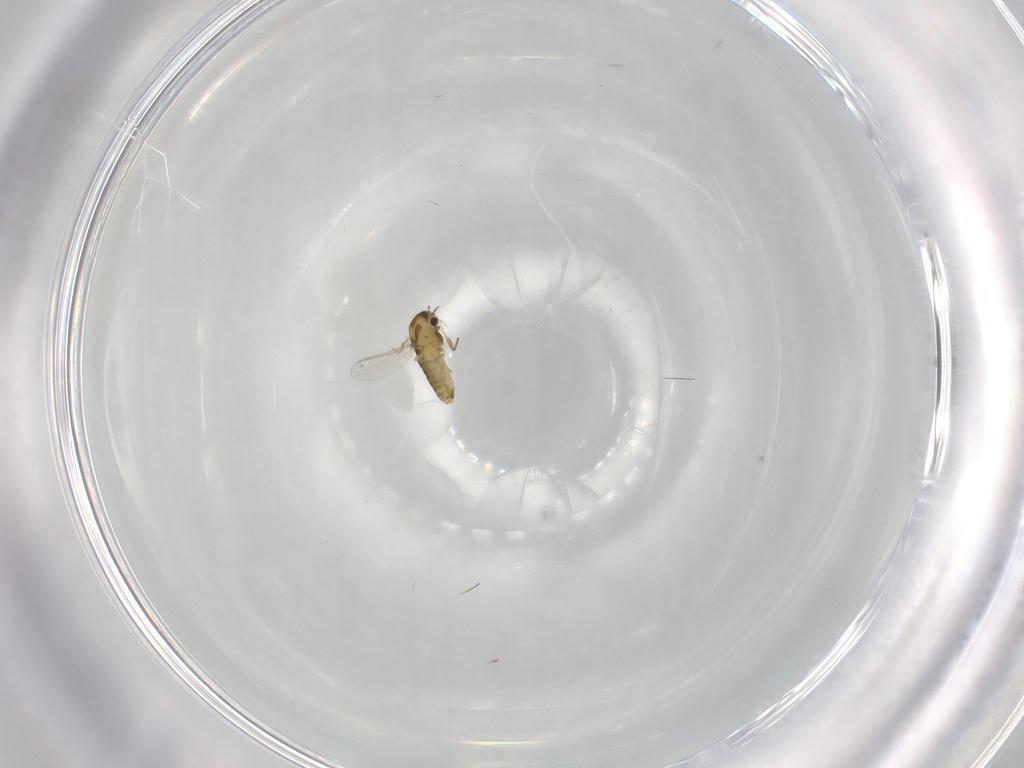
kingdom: Animalia
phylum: Arthropoda
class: Insecta
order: Diptera
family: Chironomidae
